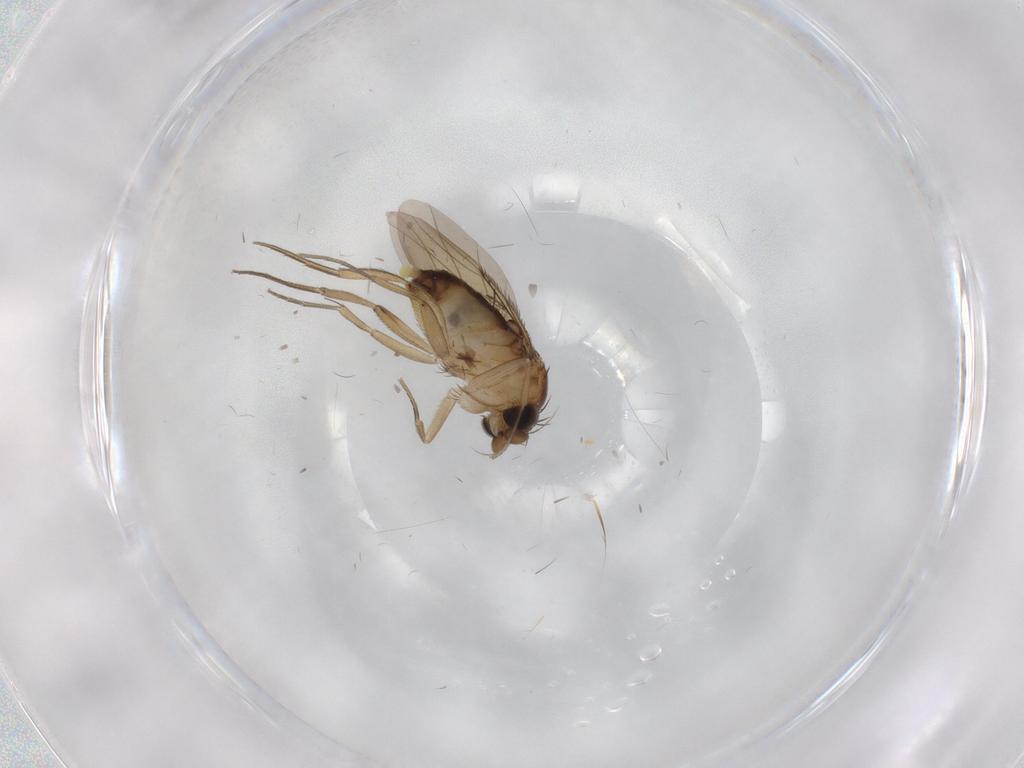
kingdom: Animalia
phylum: Arthropoda
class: Insecta
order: Diptera
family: Phoridae
